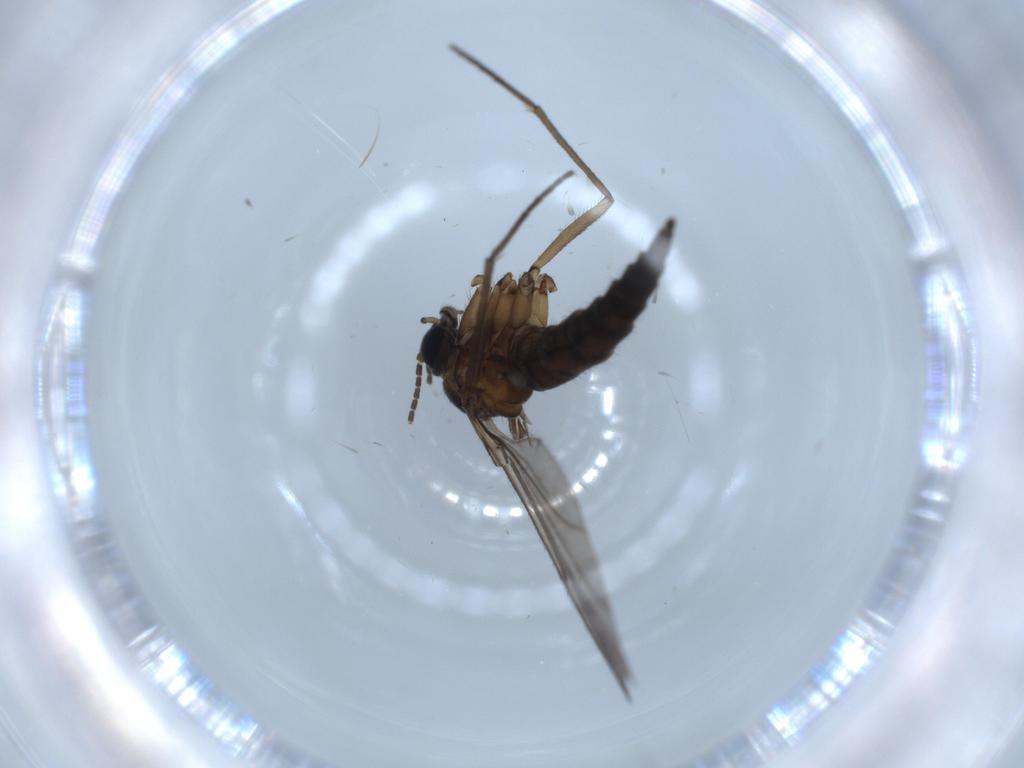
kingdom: Animalia
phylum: Arthropoda
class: Insecta
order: Diptera
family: Sciaridae
